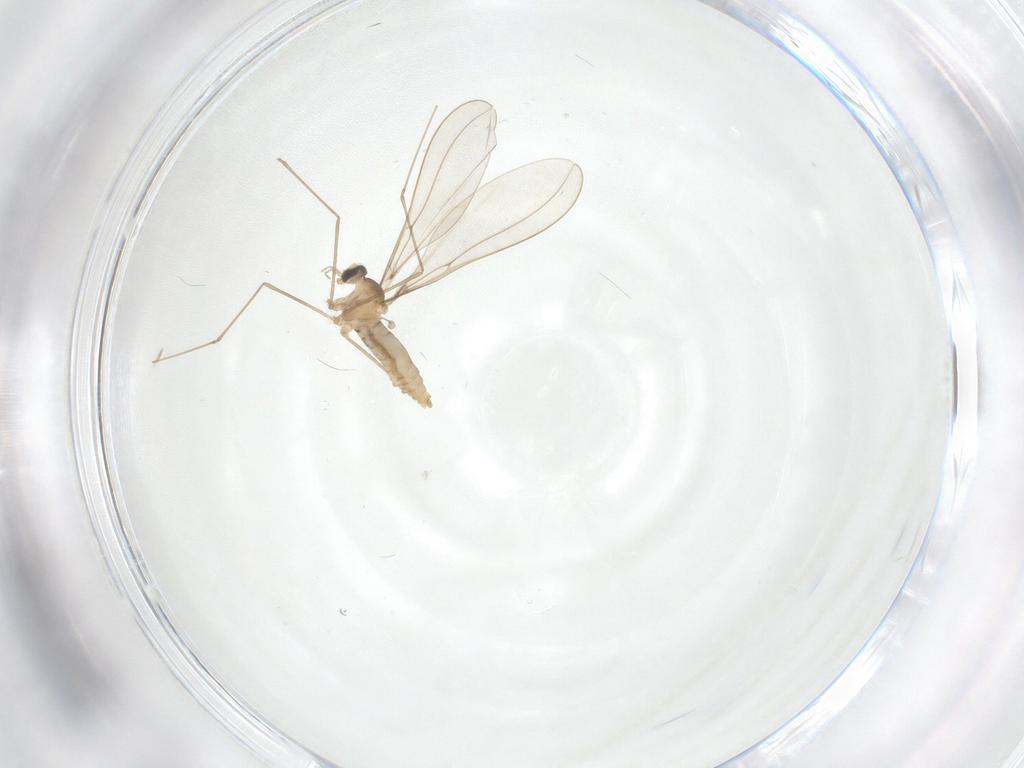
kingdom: Animalia
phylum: Arthropoda
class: Insecta
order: Diptera
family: Cecidomyiidae
